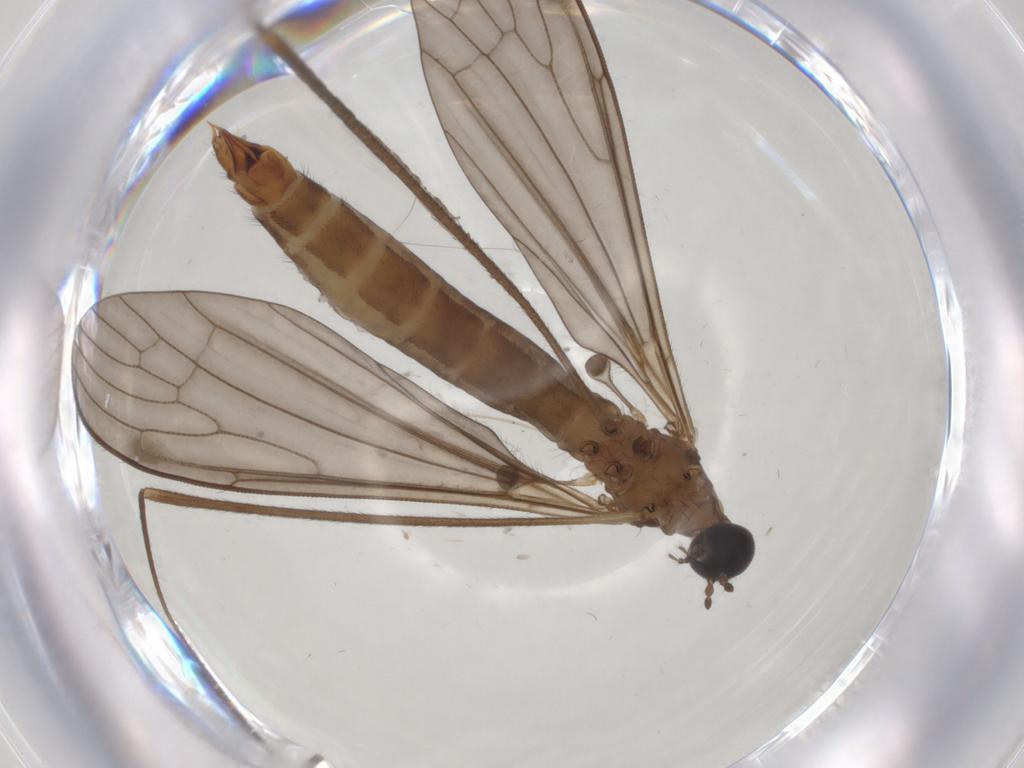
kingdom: Animalia
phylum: Arthropoda
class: Insecta
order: Diptera
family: Limoniidae
